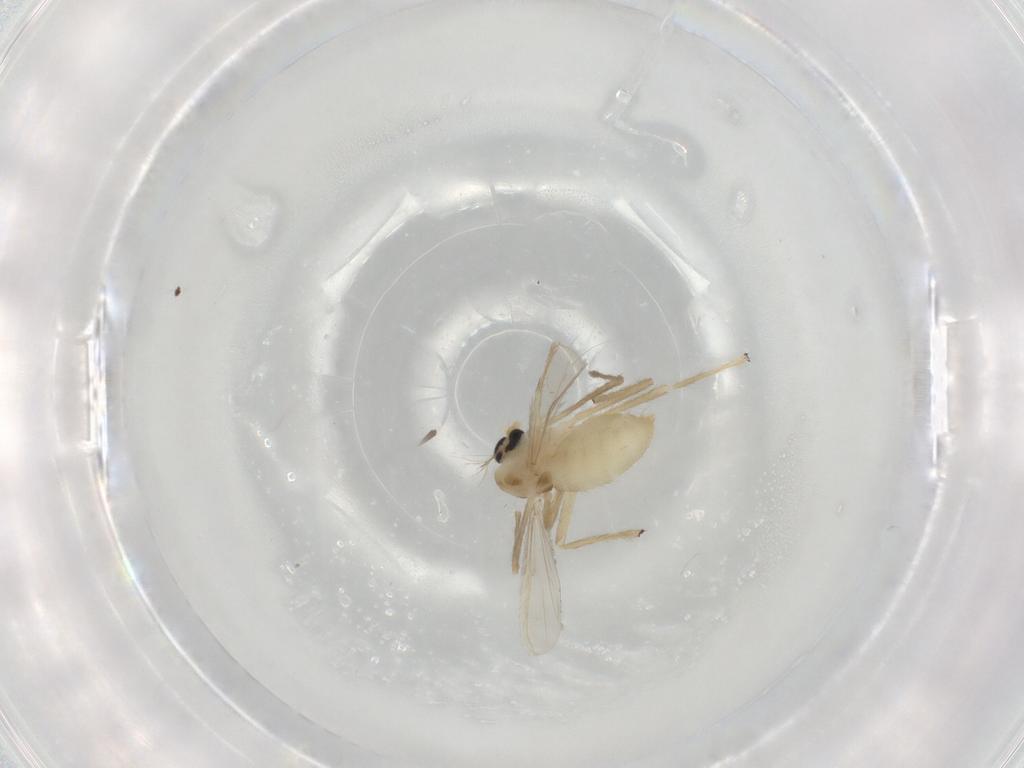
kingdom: Animalia
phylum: Arthropoda
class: Insecta
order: Diptera
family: Chironomidae
